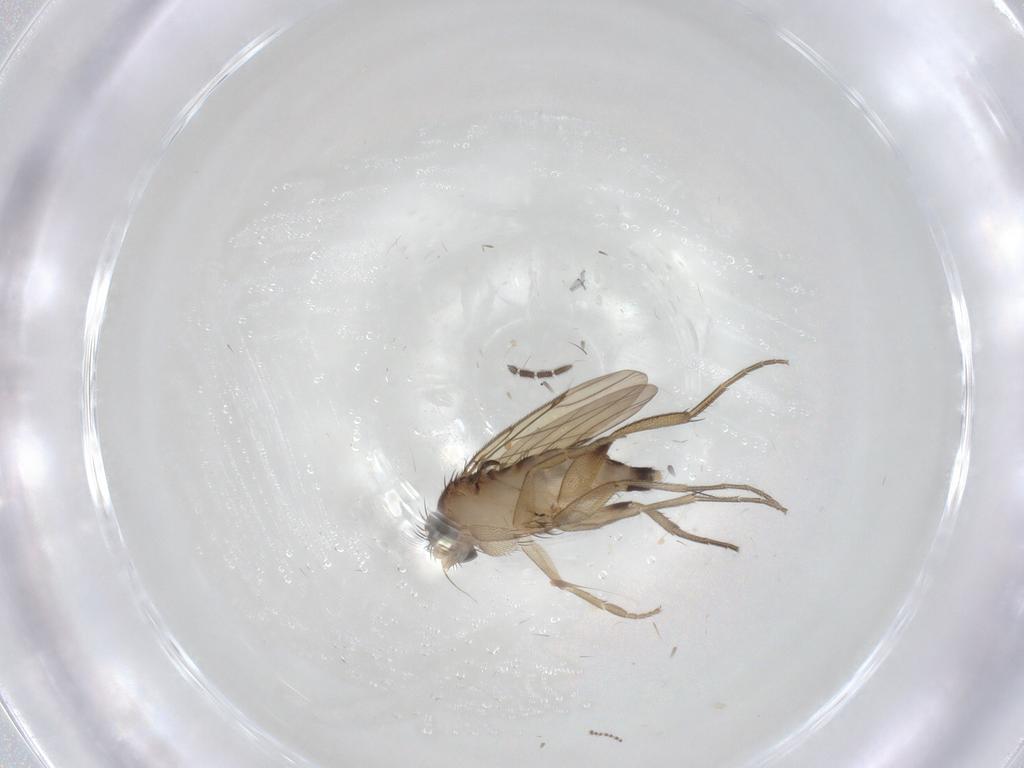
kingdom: Animalia
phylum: Arthropoda
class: Insecta
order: Diptera
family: Phoridae
